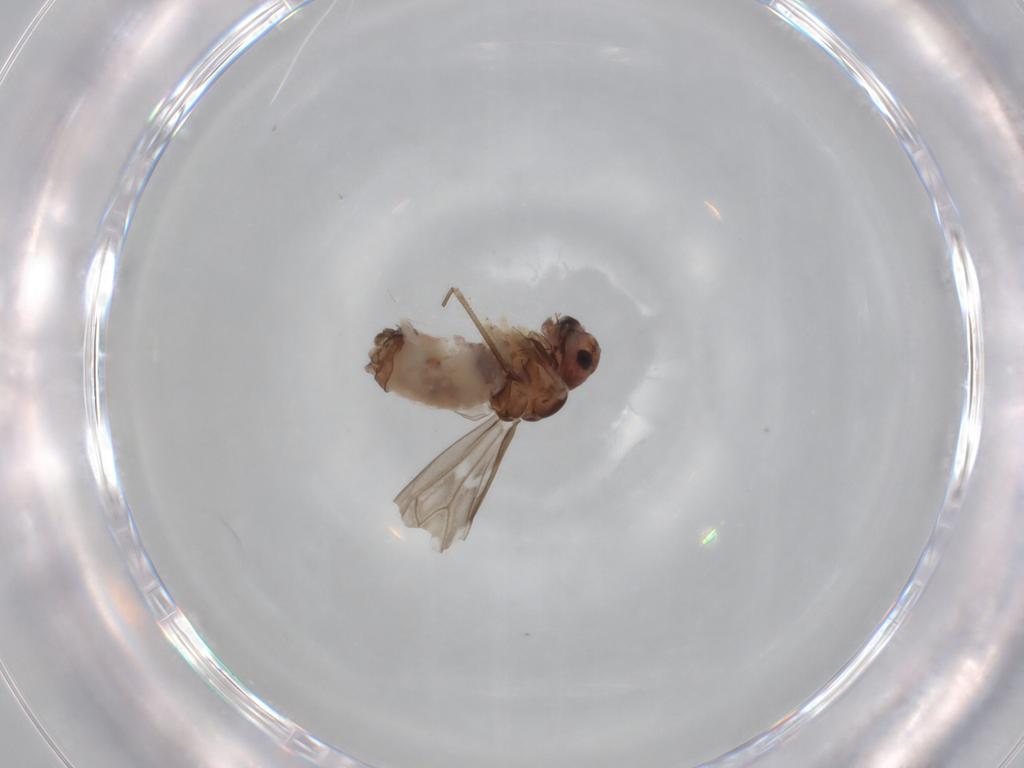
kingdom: Animalia
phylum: Arthropoda
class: Insecta
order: Psocodea
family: Peripsocidae
